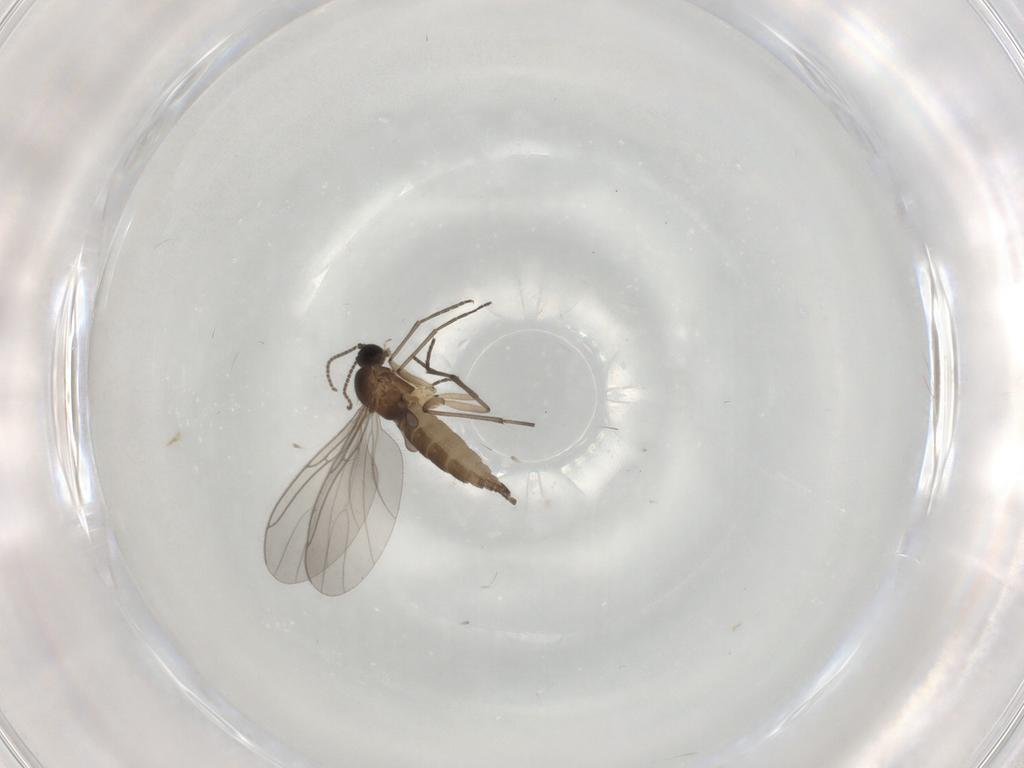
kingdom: Animalia
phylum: Arthropoda
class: Insecta
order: Diptera
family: Sciaridae
